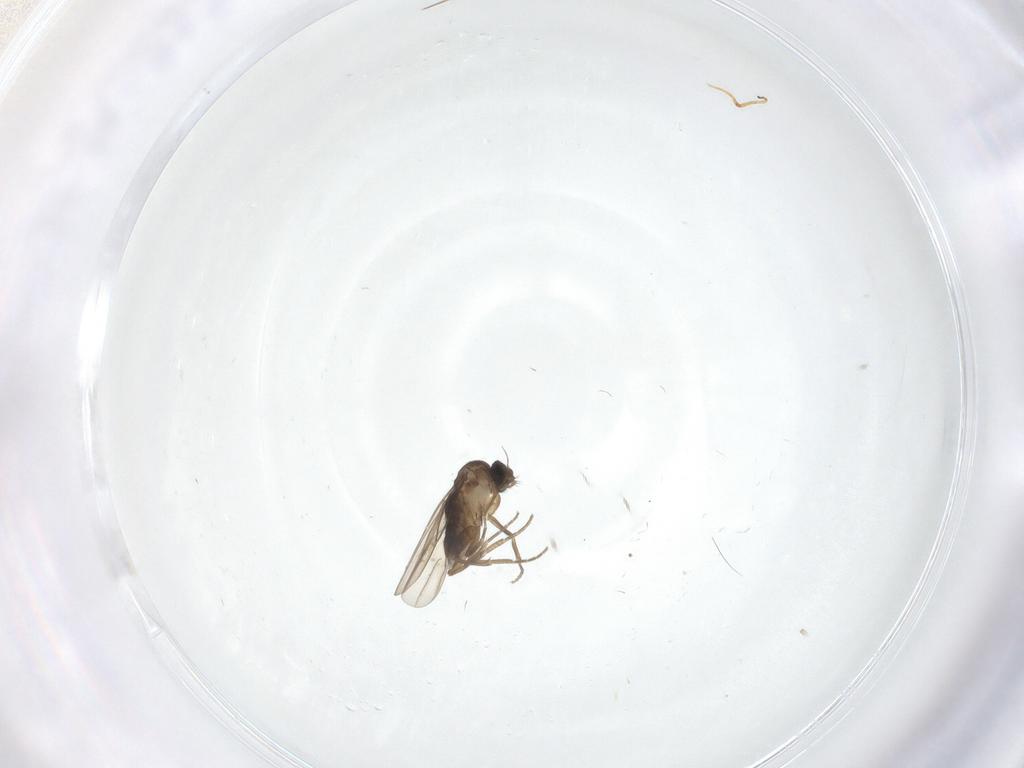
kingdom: Animalia
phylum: Arthropoda
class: Insecta
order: Diptera
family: Phoridae
